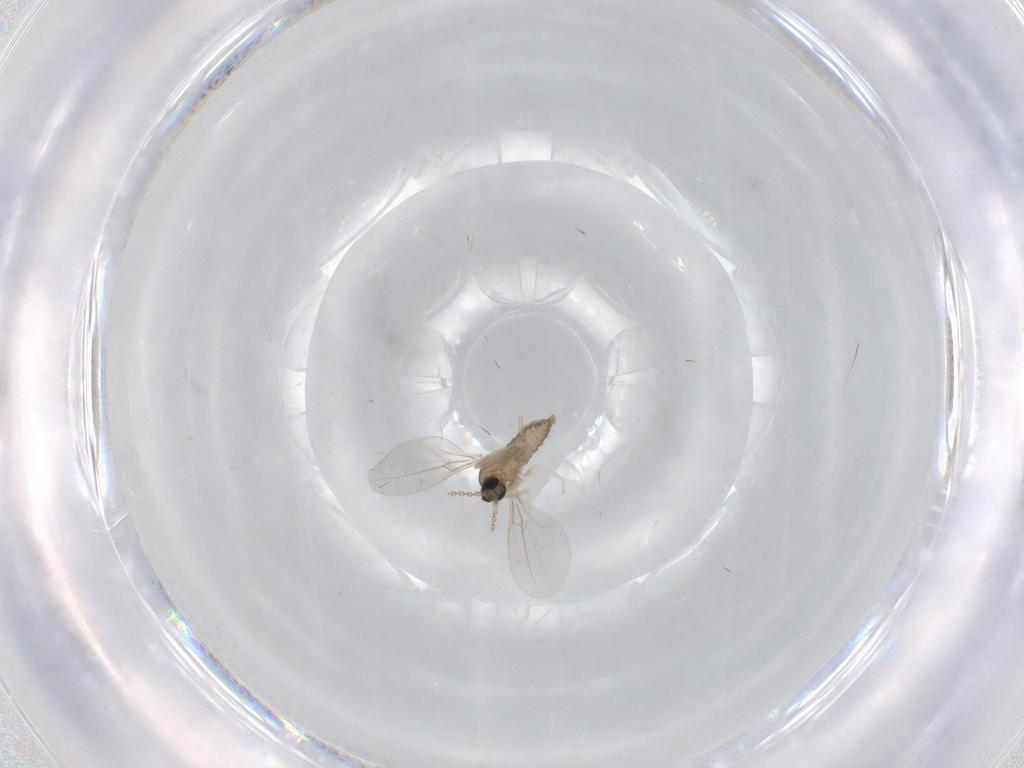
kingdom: Animalia
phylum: Arthropoda
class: Insecta
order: Diptera
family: Cecidomyiidae
